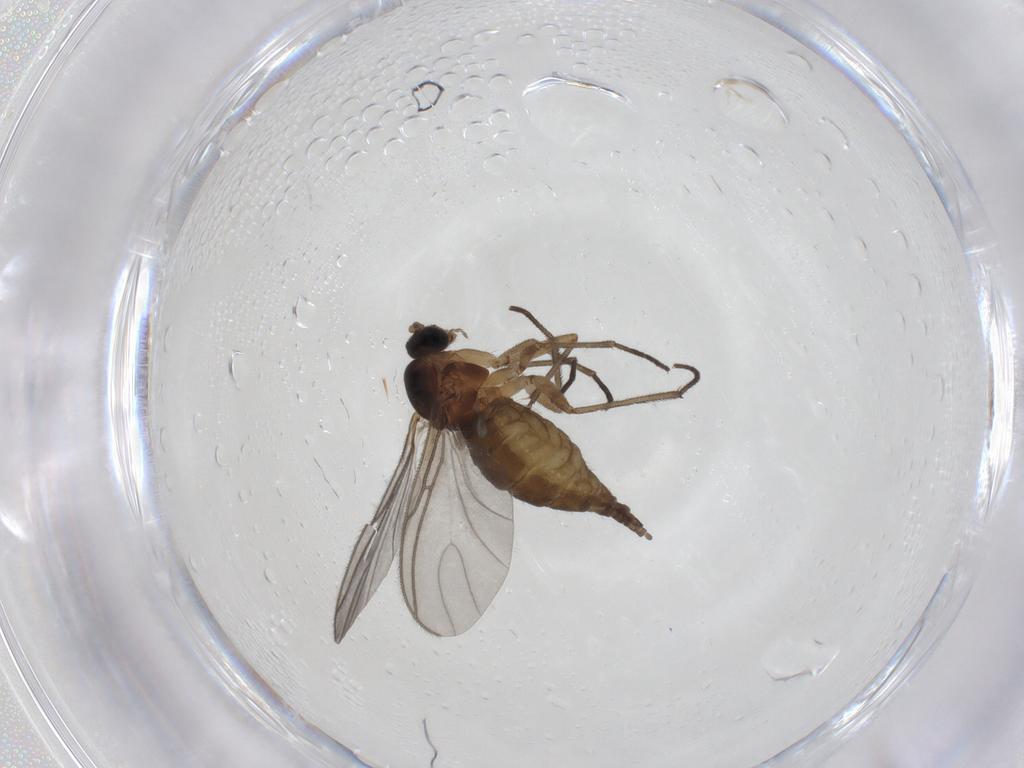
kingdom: Animalia
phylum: Arthropoda
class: Insecta
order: Diptera
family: Sciaridae
